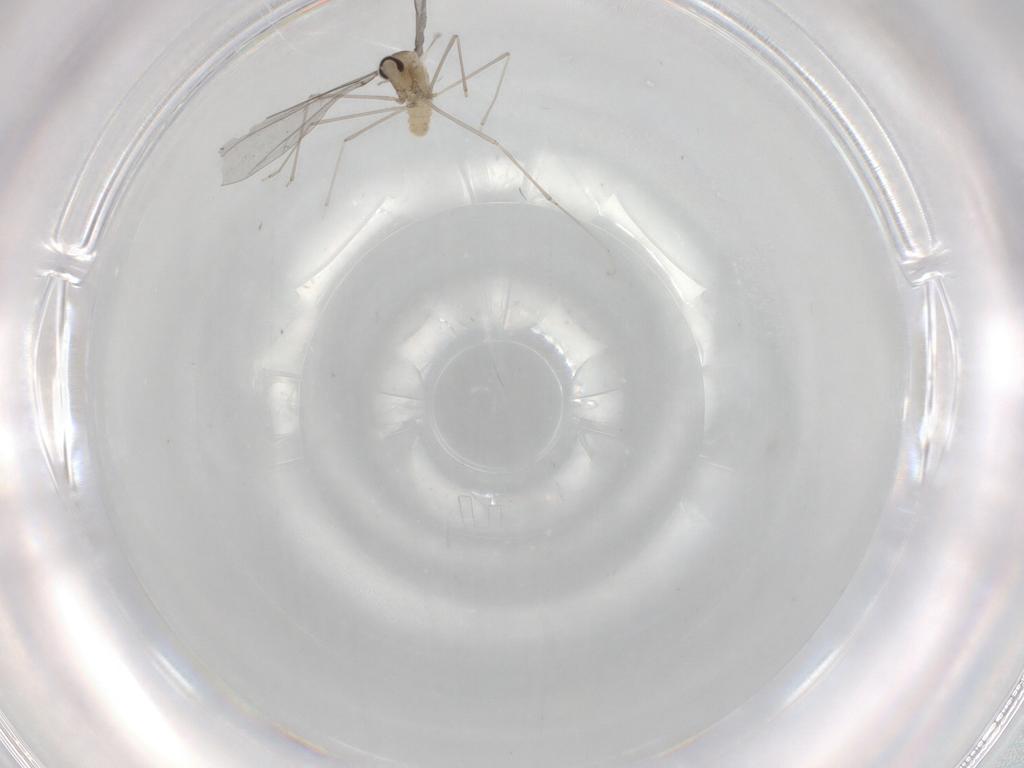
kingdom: Animalia
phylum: Arthropoda
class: Insecta
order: Diptera
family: Cecidomyiidae
